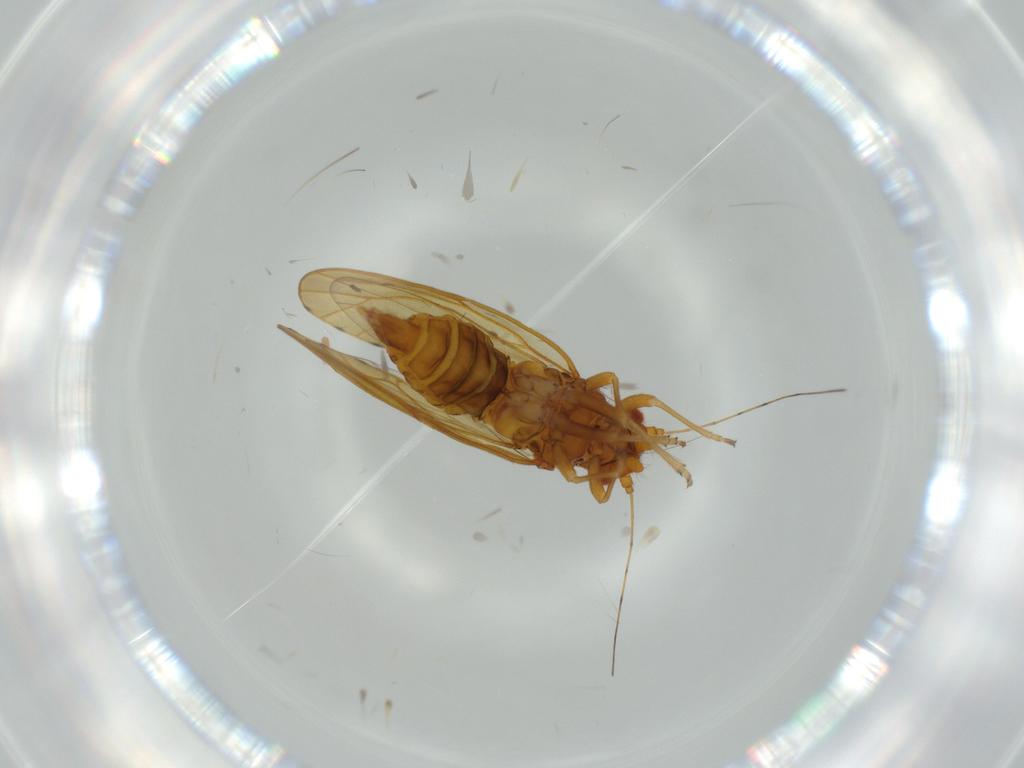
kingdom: Animalia
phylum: Arthropoda
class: Insecta
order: Hemiptera
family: Psylloidea_incertae_sedis
